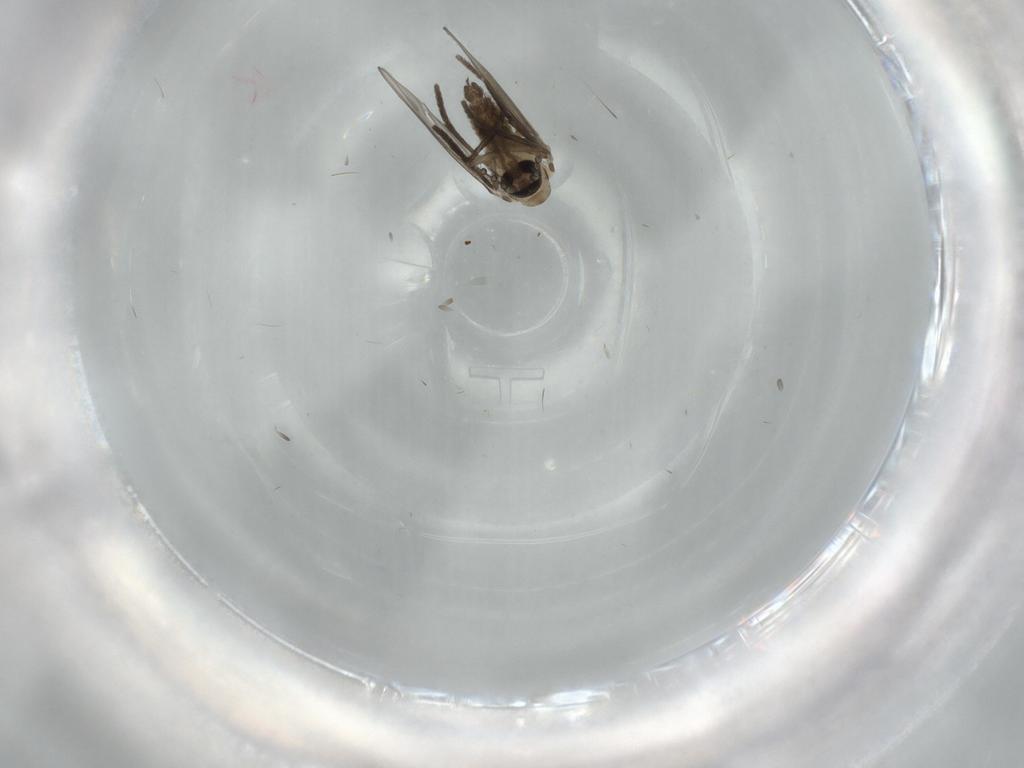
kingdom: Animalia
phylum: Arthropoda
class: Insecta
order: Diptera
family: Psychodidae
